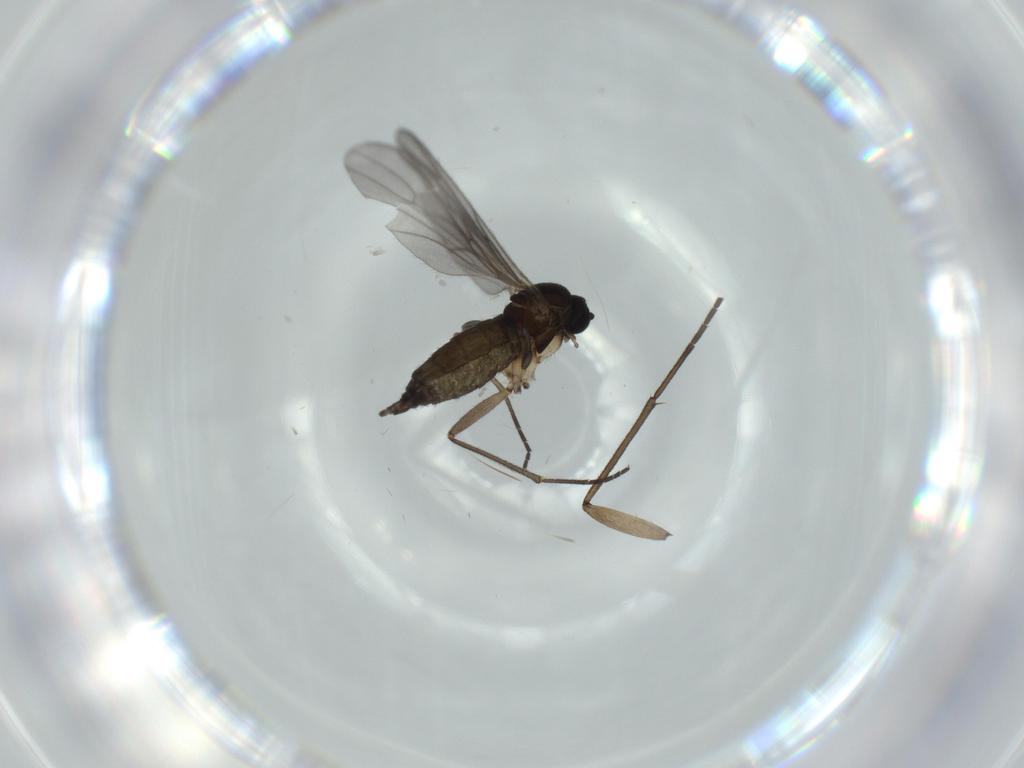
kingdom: Animalia
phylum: Arthropoda
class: Insecta
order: Diptera
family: Sciaridae
